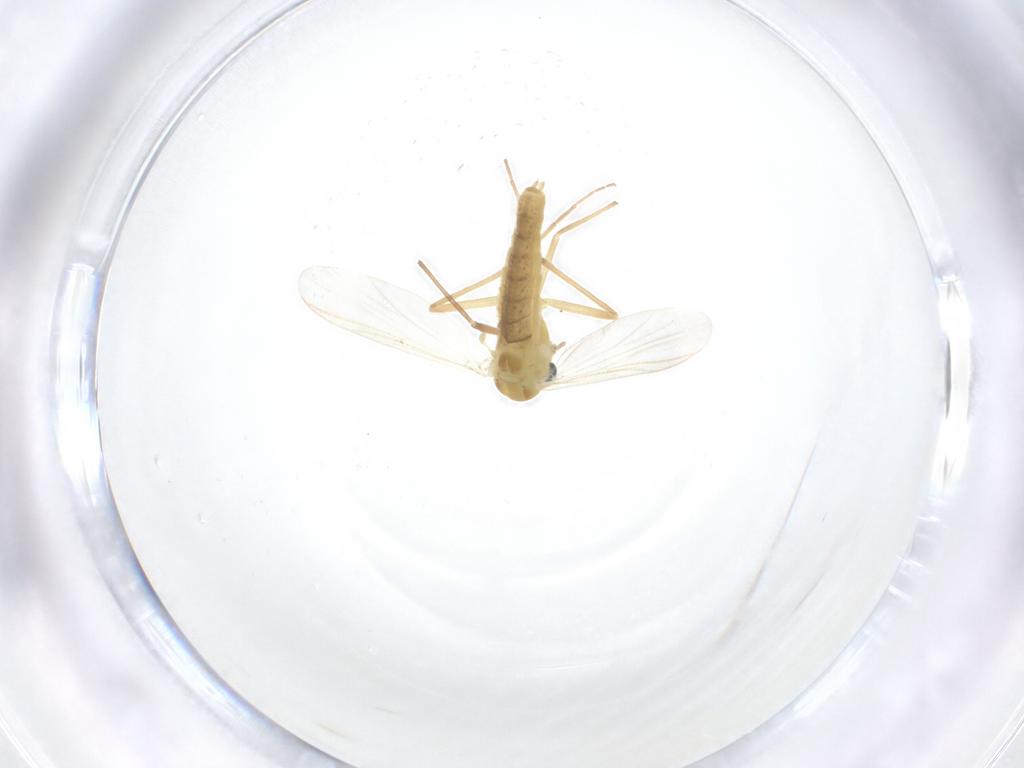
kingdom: Animalia
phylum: Arthropoda
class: Insecta
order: Diptera
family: Chironomidae
